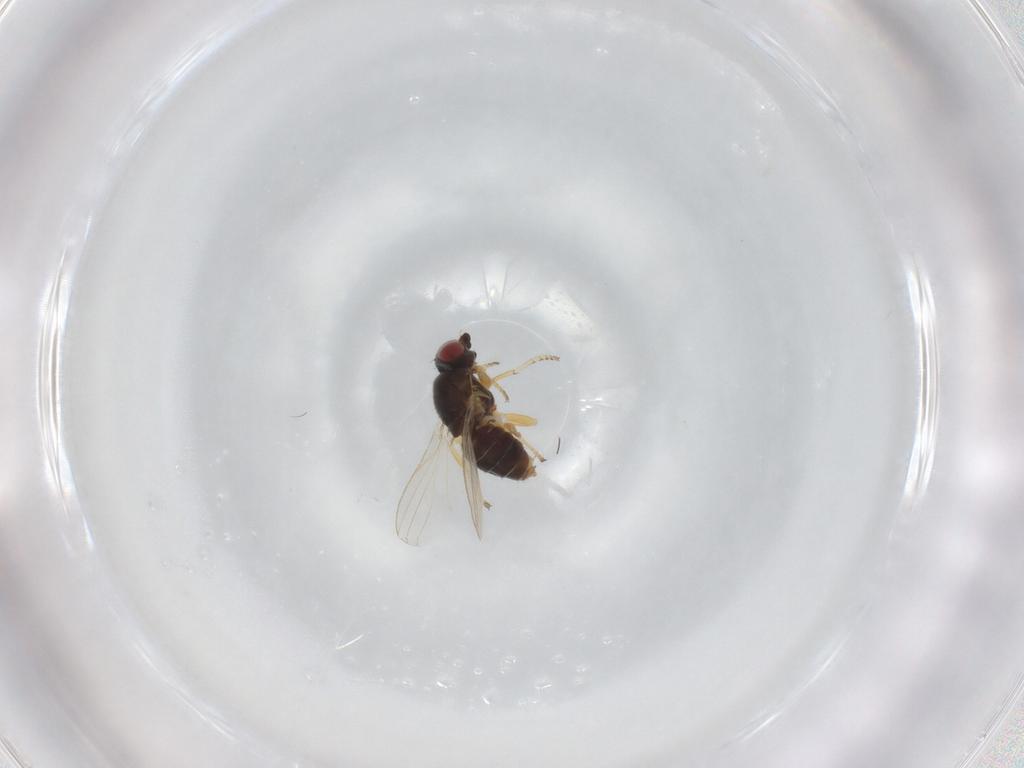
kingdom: Animalia
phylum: Arthropoda
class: Insecta
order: Diptera
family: Chamaemyiidae
